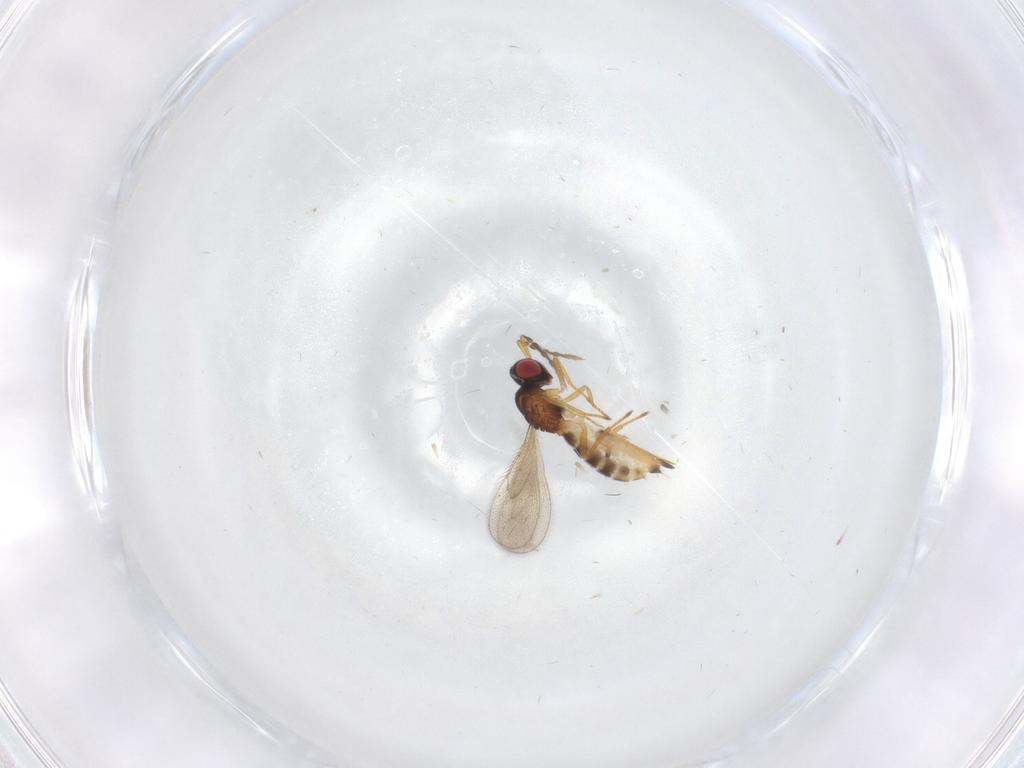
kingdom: Animalia
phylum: Arthropoda
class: Insecta
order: Hymenoptera
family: Eulophidae
